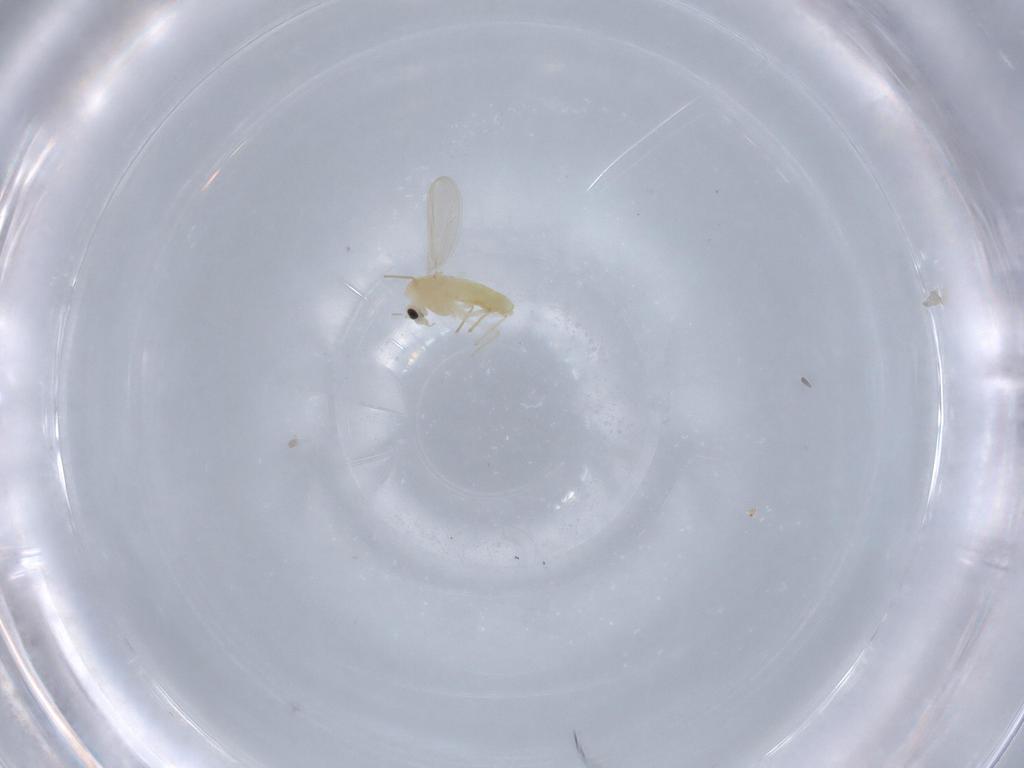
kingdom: Animalia
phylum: Arthropoda
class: Insecta
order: Diptera
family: Chironomidae
